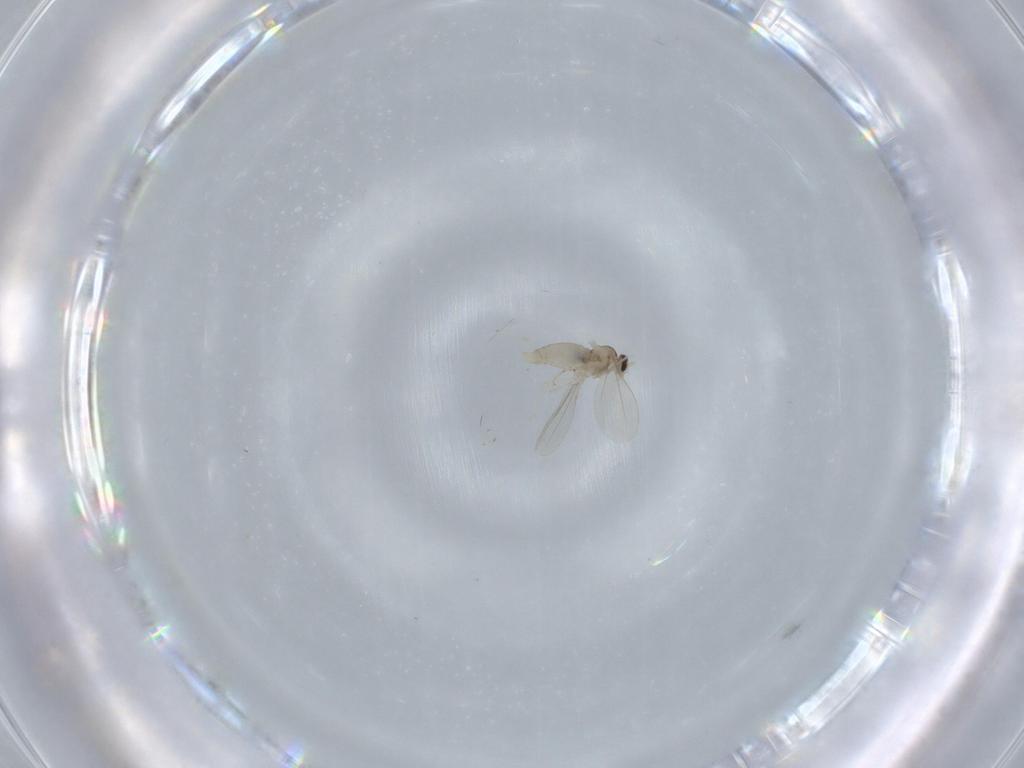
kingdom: Animalia
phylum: Arthropoda
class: Insecta
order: Diptera
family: Cecidomyiidae
